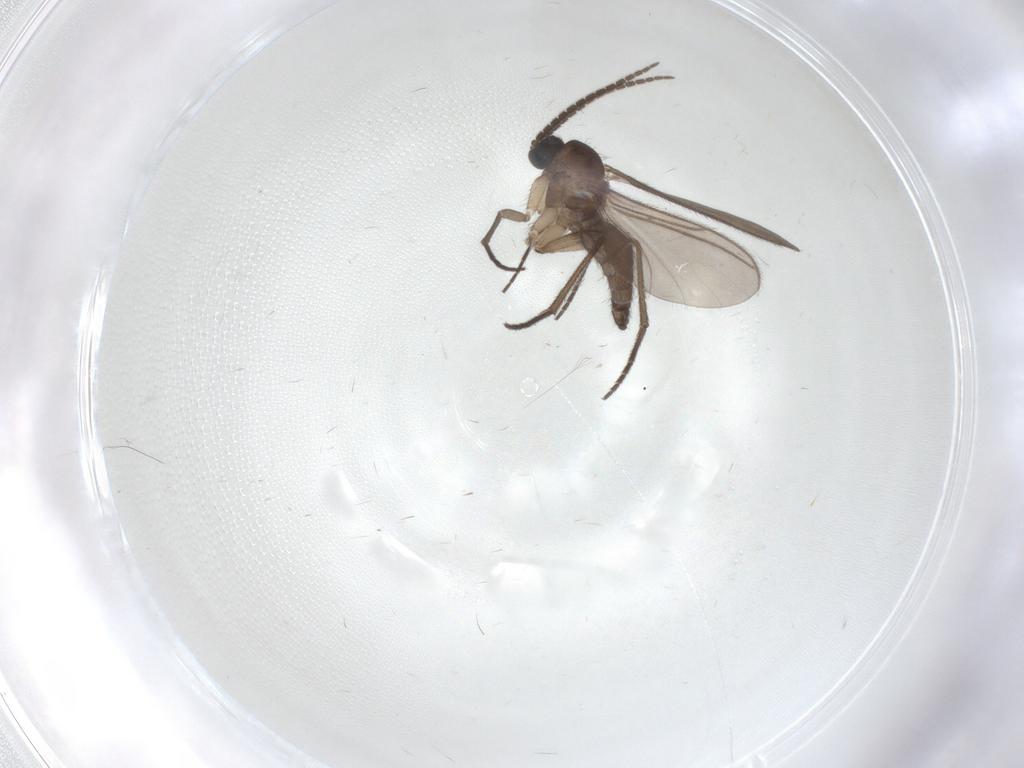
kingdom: Animalia
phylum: Arthropoda
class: Insecta
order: Diptera
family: Sciaridae
